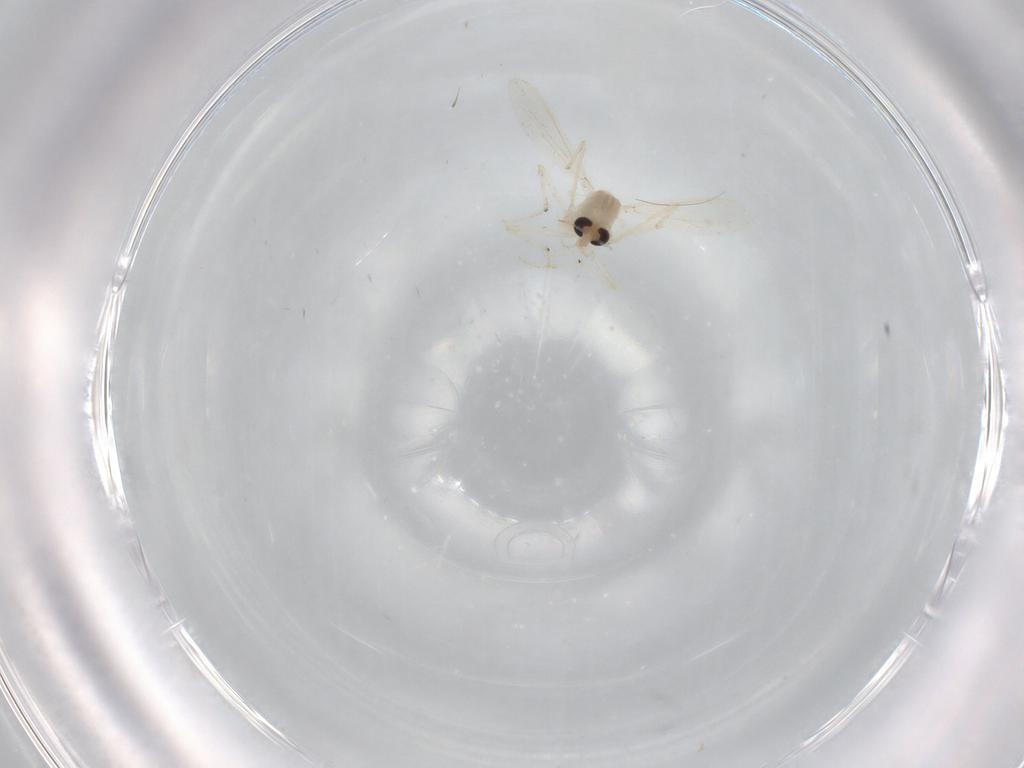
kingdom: Animalia
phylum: Arthropoda
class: Insecta
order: Diptera
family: Chironomidae
